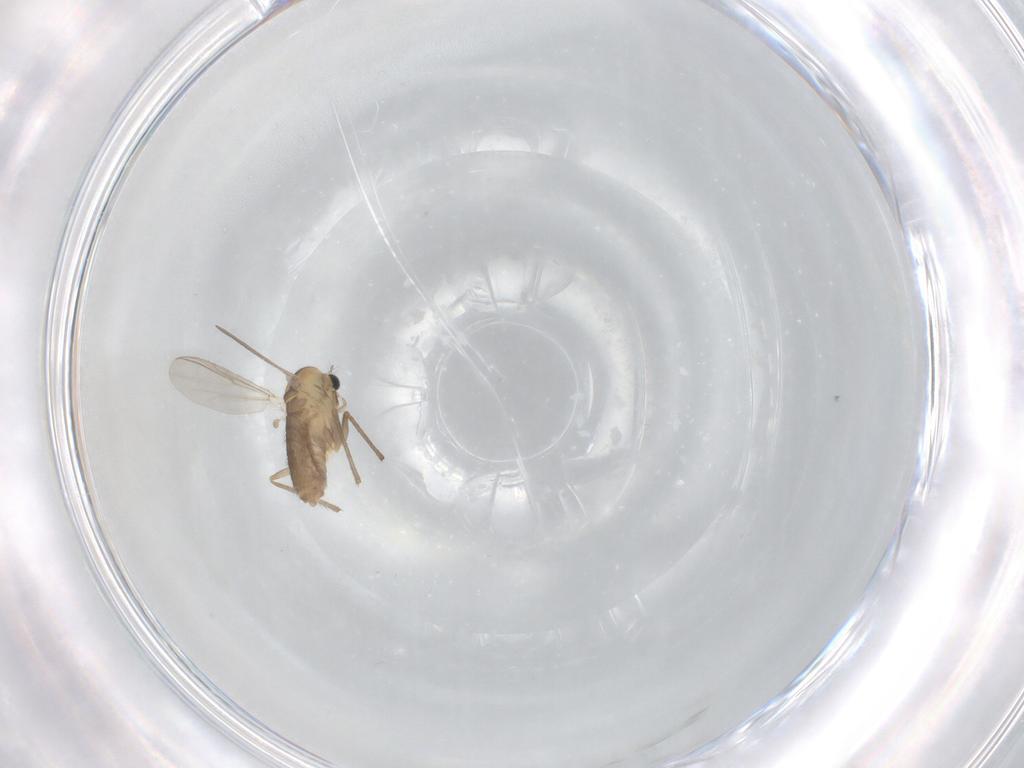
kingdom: Animalia
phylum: Arthropoda
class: Insecta
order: Diptera
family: Chironomidae
